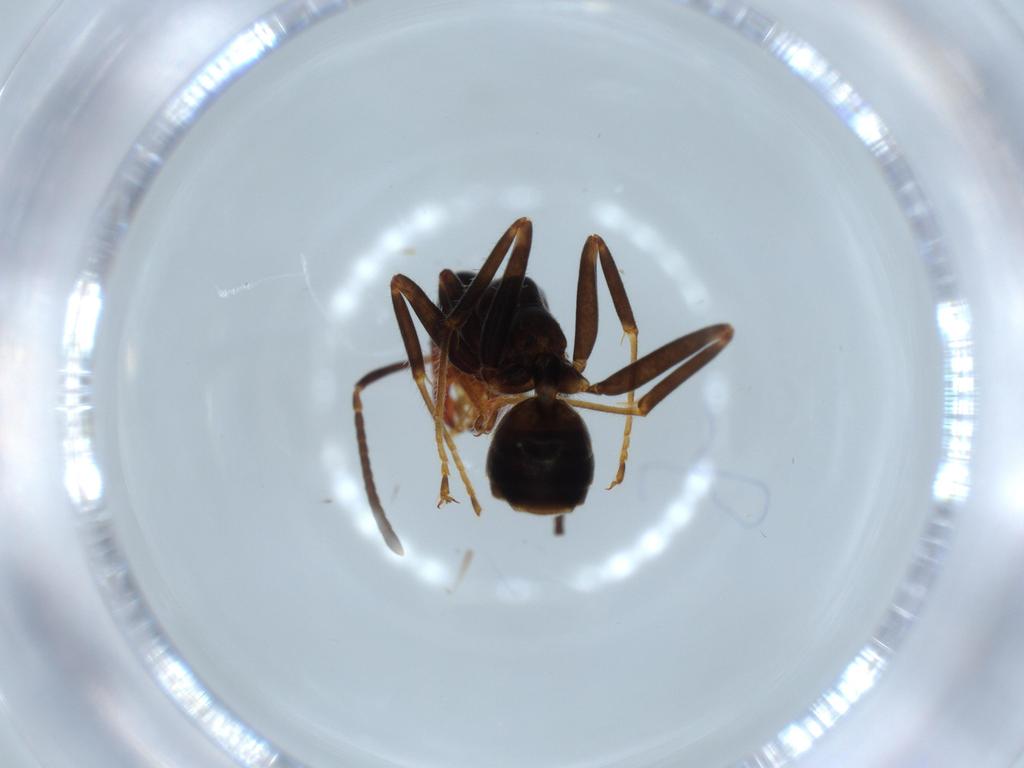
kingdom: Animalia
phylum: Arthropoda
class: Insecta
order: Hymenoptera
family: Formicidae
